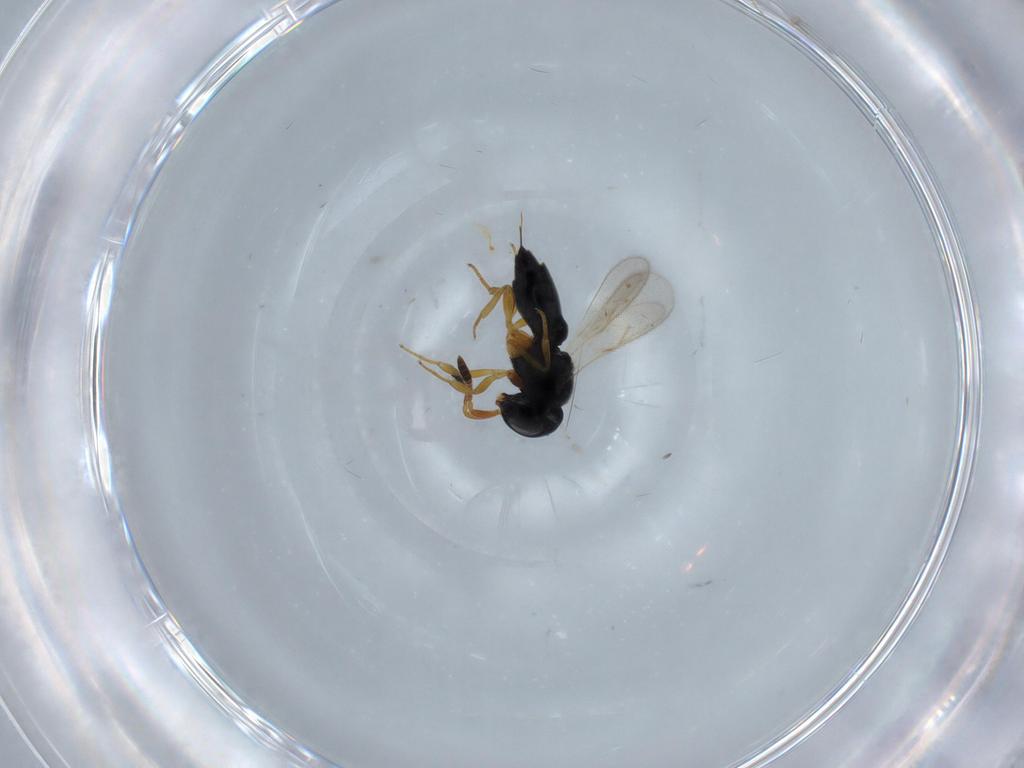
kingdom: Animalia
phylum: Arthropoda
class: Insecta
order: Hymenoptera
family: Scelionidae
